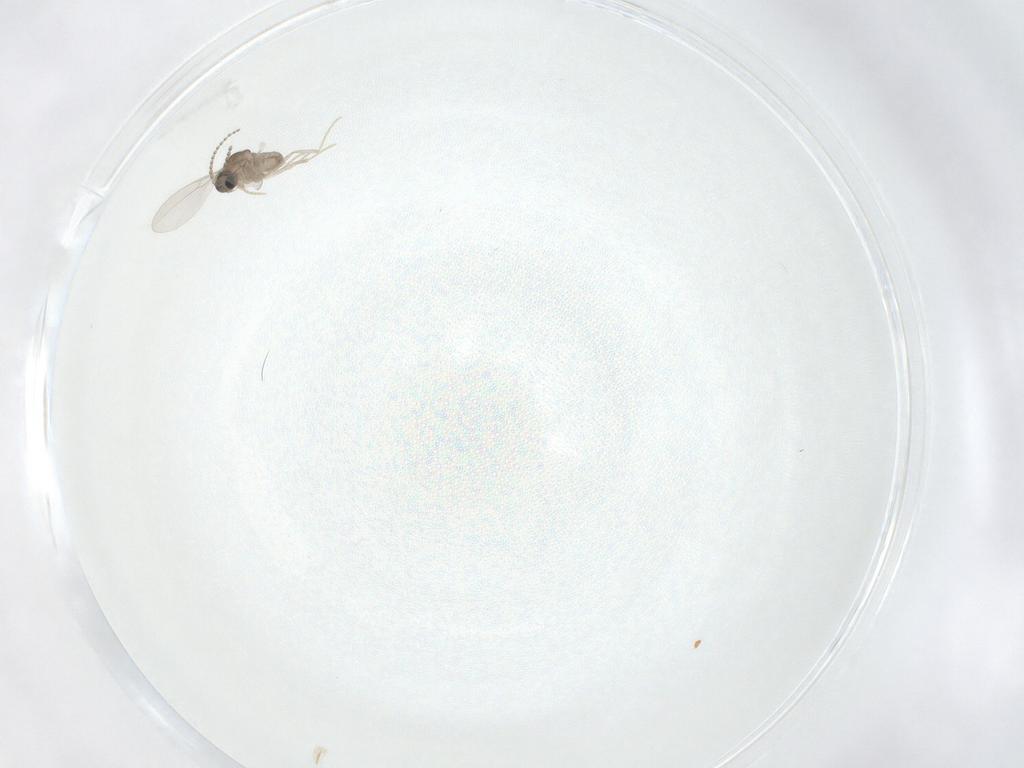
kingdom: Animalia
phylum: Arthropoda
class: Insecta
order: Diptera
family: Cecidomyiidae
